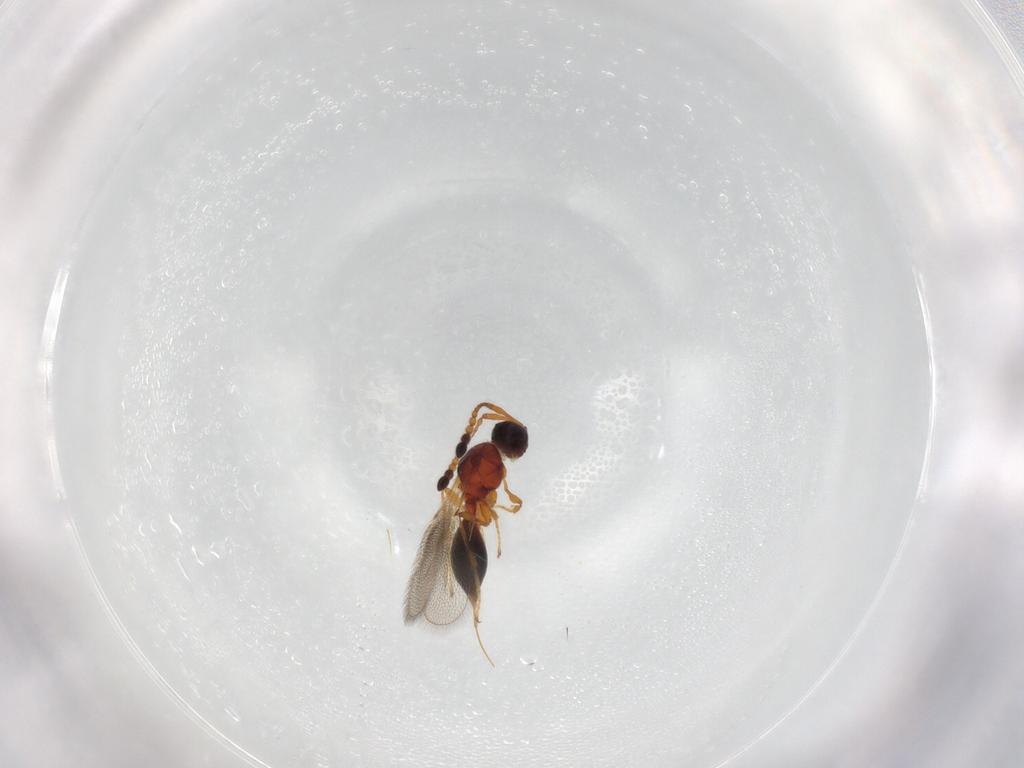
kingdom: Animalia
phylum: Arthropoda
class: Insecta
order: Hymenoptera
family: Diapriidae
